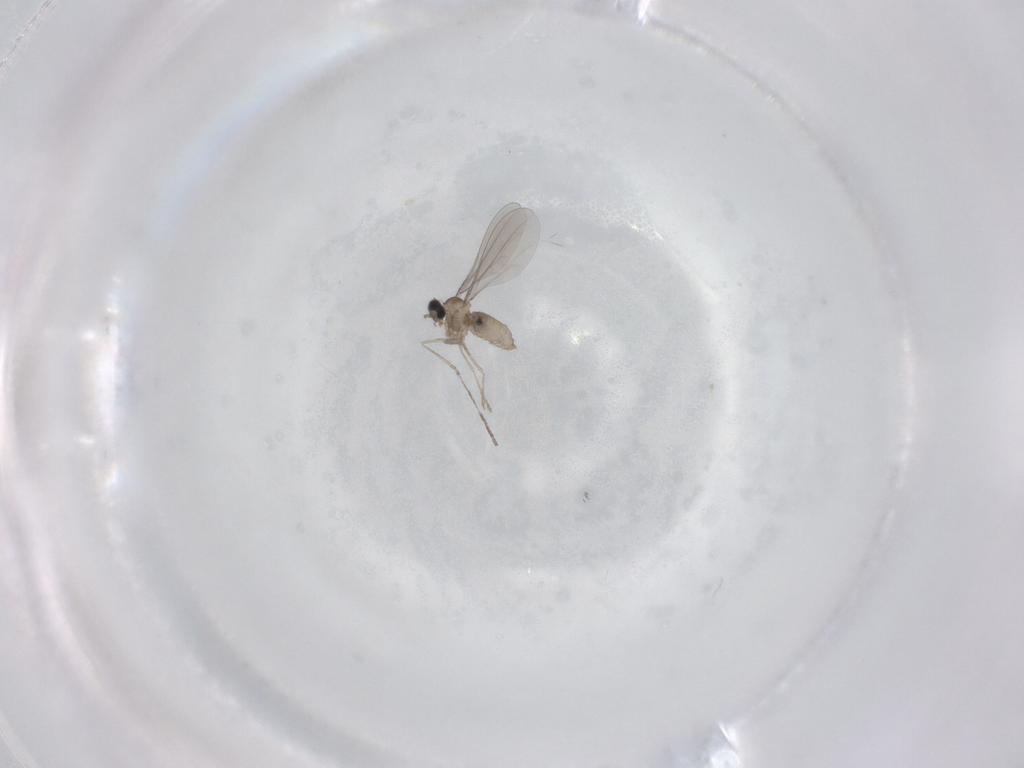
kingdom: Animalia
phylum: Arthropoda
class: Insecta
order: Diptera
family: Cecidomyiidae
